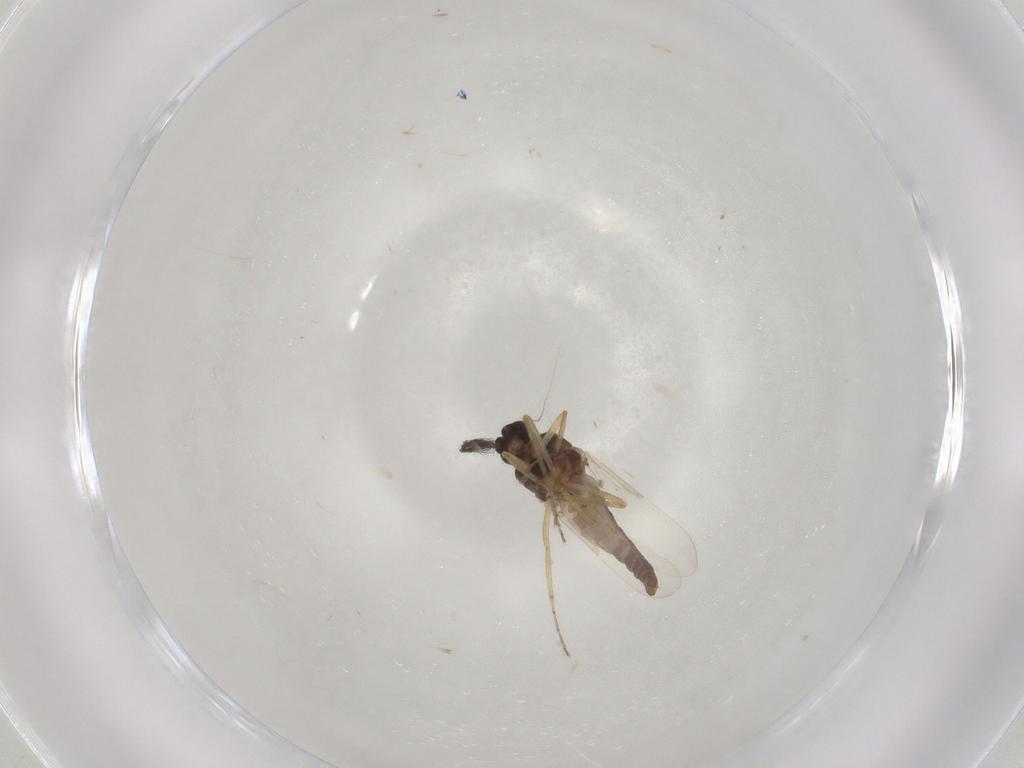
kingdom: Animalia
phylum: Arthropoda
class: Insecta
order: Diptera
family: Ceratopogonidae
